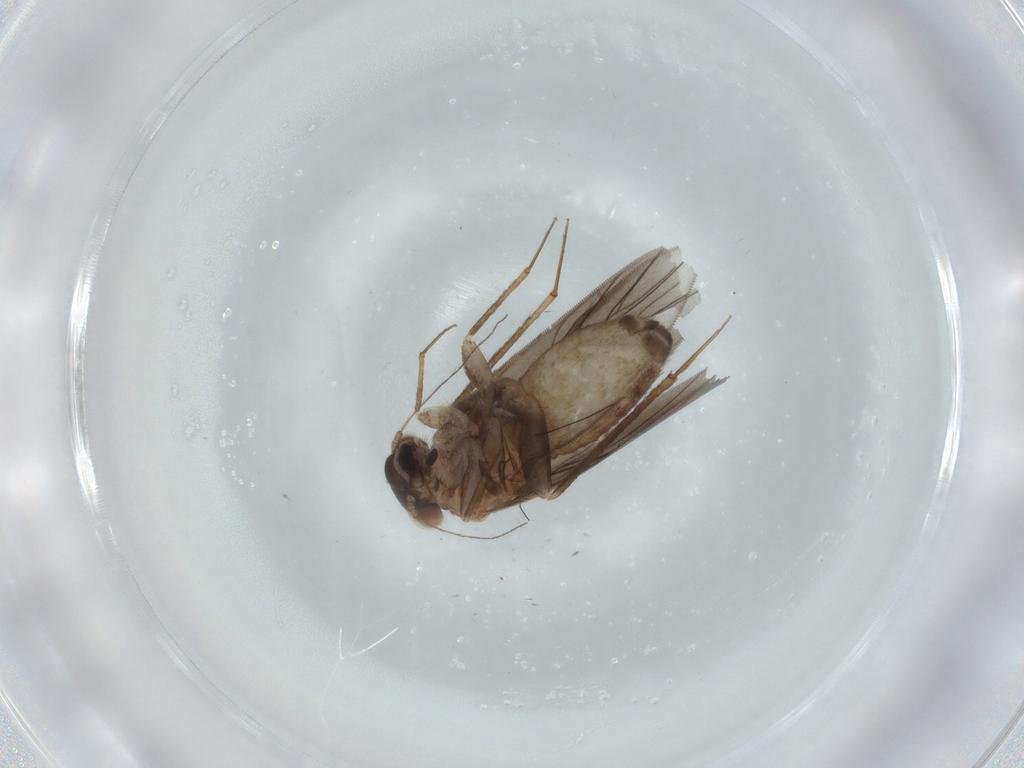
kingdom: Animalia
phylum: Arthropoda
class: Insecta
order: Psocodea
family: Lepidopsocidae
